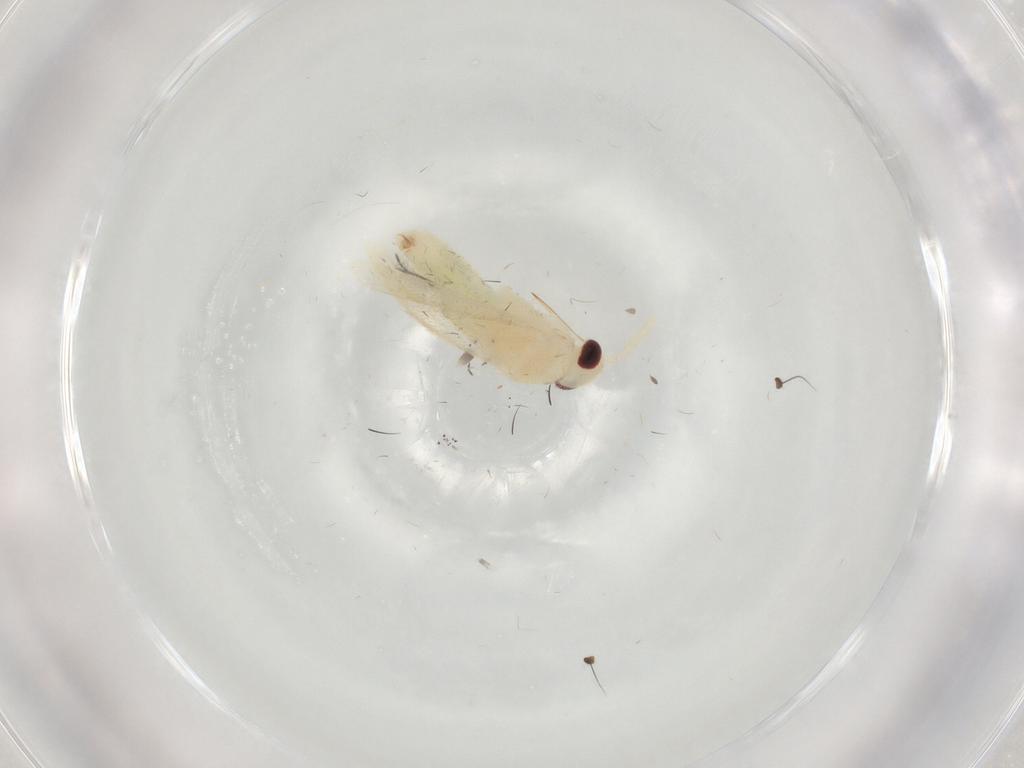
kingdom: Animalia
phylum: Arthropoda
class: Insecta
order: Hemiptera
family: Miridae
